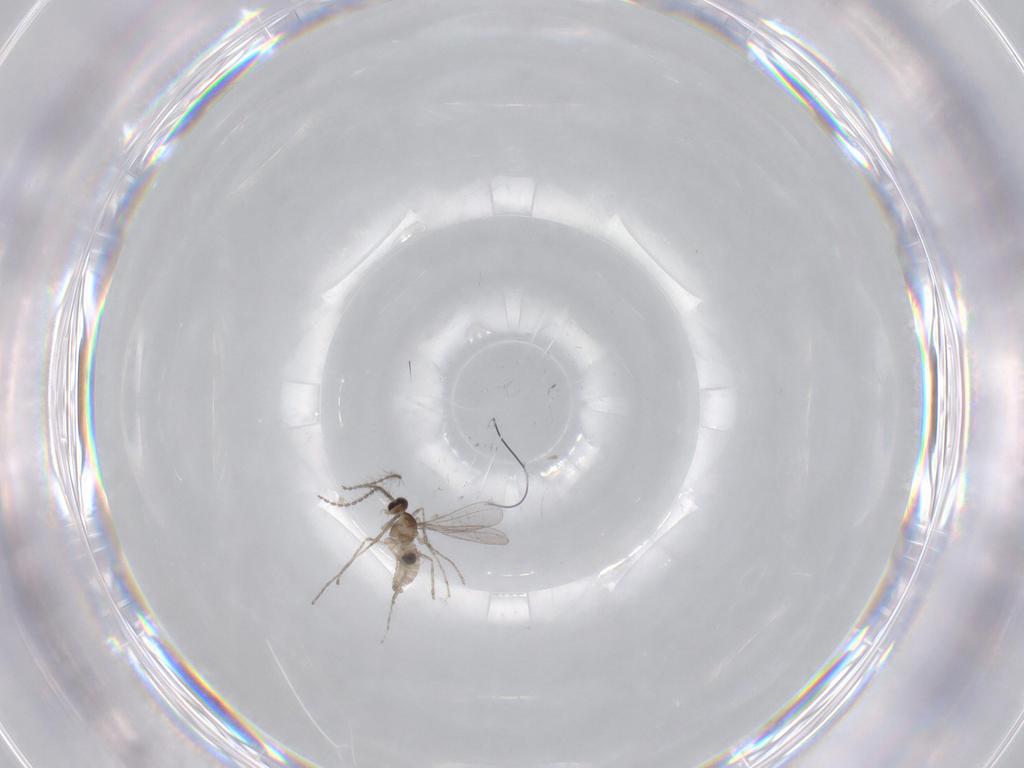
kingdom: Animalia
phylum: Arthropoda
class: Insecta
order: Diptera
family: Ceratopogonidae
